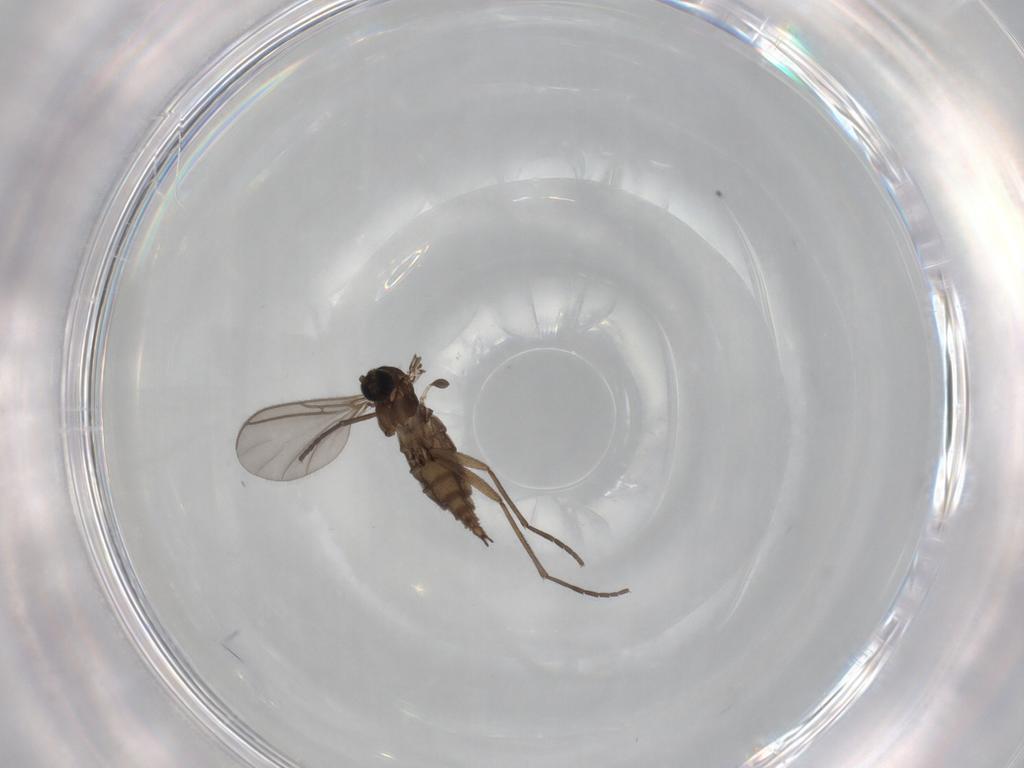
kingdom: Animalia
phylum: Arthropoda
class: Insecta
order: Diptera
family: Sciaridae
